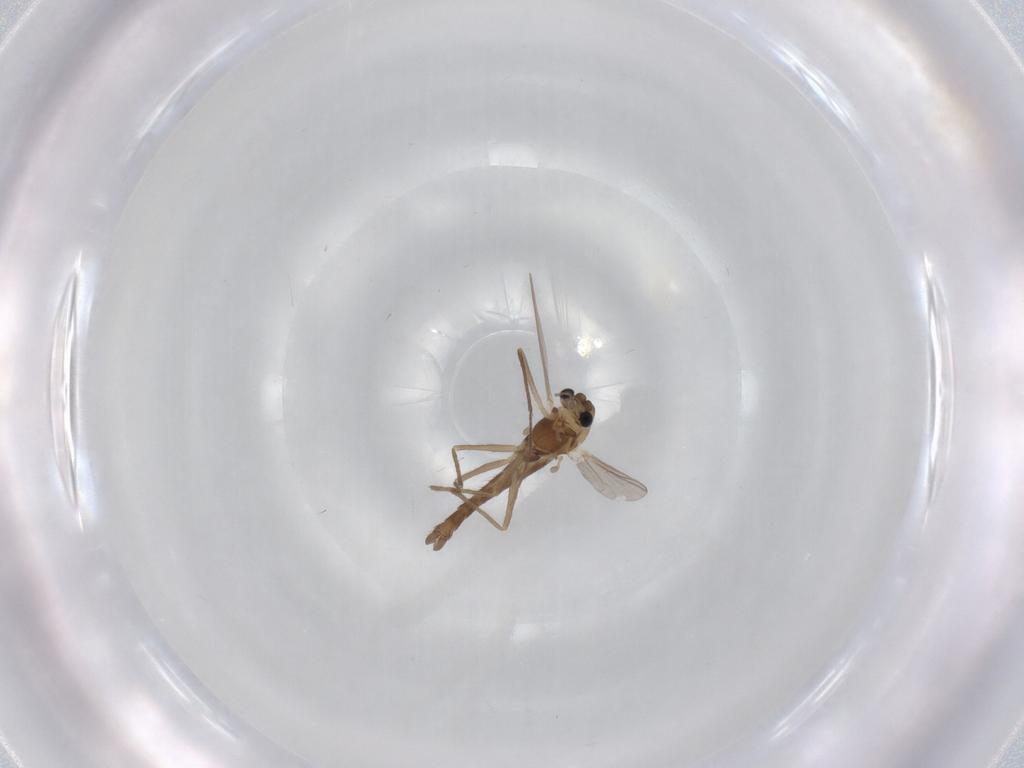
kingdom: Animalia
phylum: Arthropoda
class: Insecta
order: Diptera
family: Chironomidae
